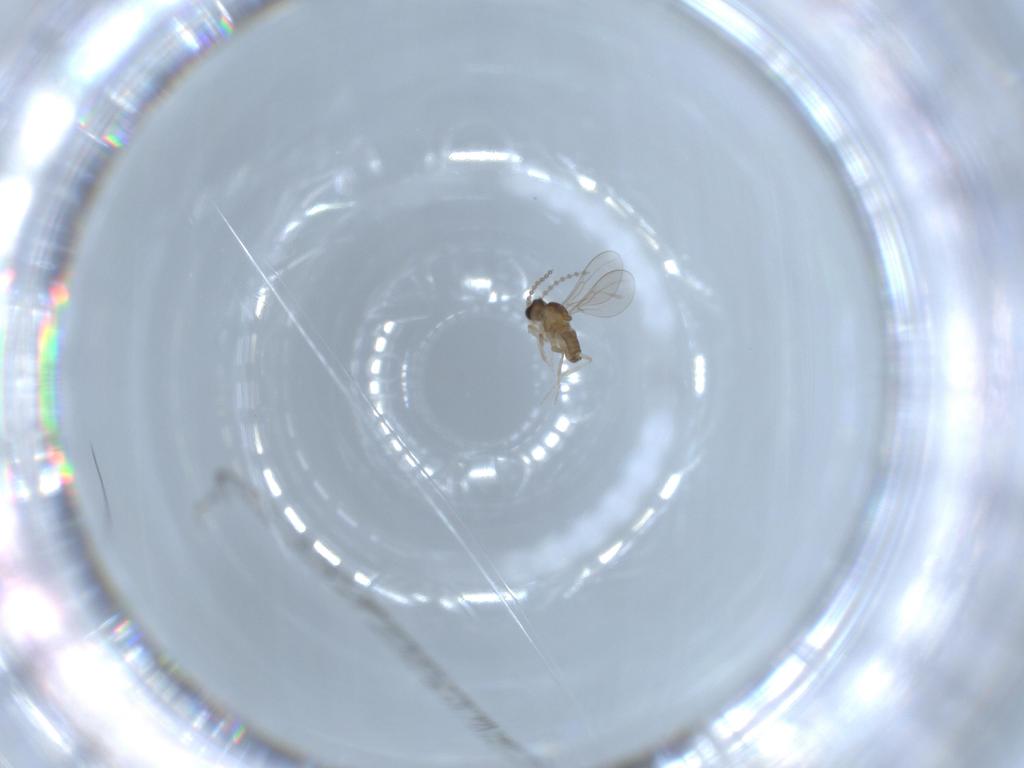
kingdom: Animalia
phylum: Arthropoda
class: Insecta
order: Diptera
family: Cecidomyiidae
